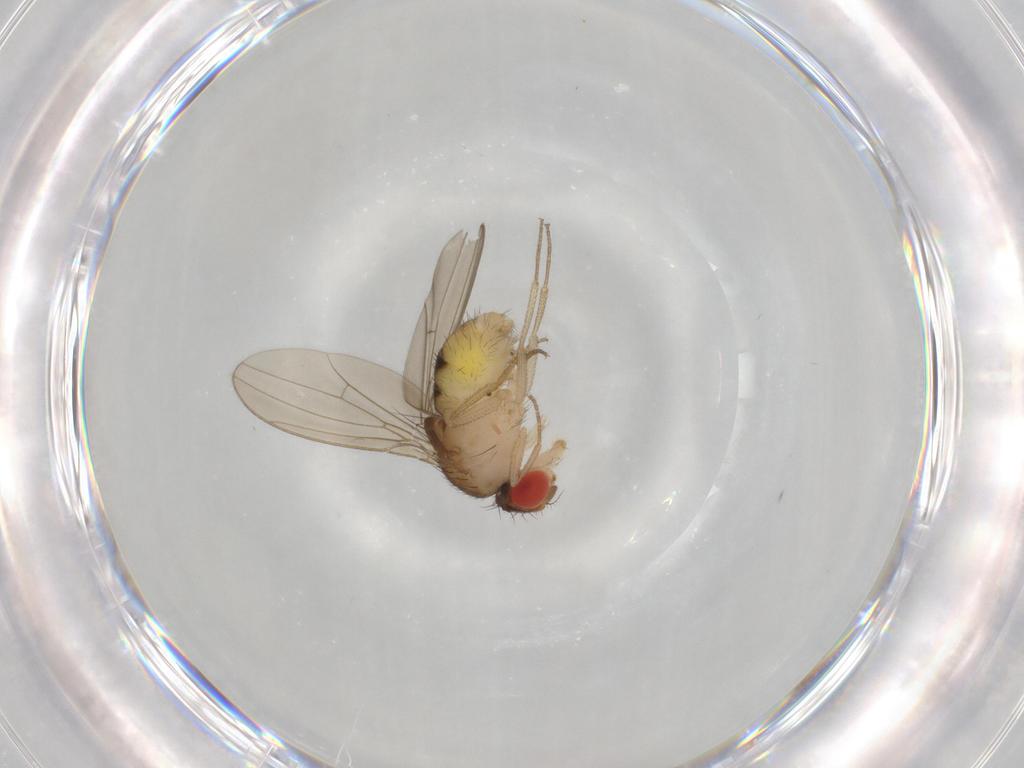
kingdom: Animalia
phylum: Arthropoda
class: Insecta
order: Diptera
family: Drosophilidae
